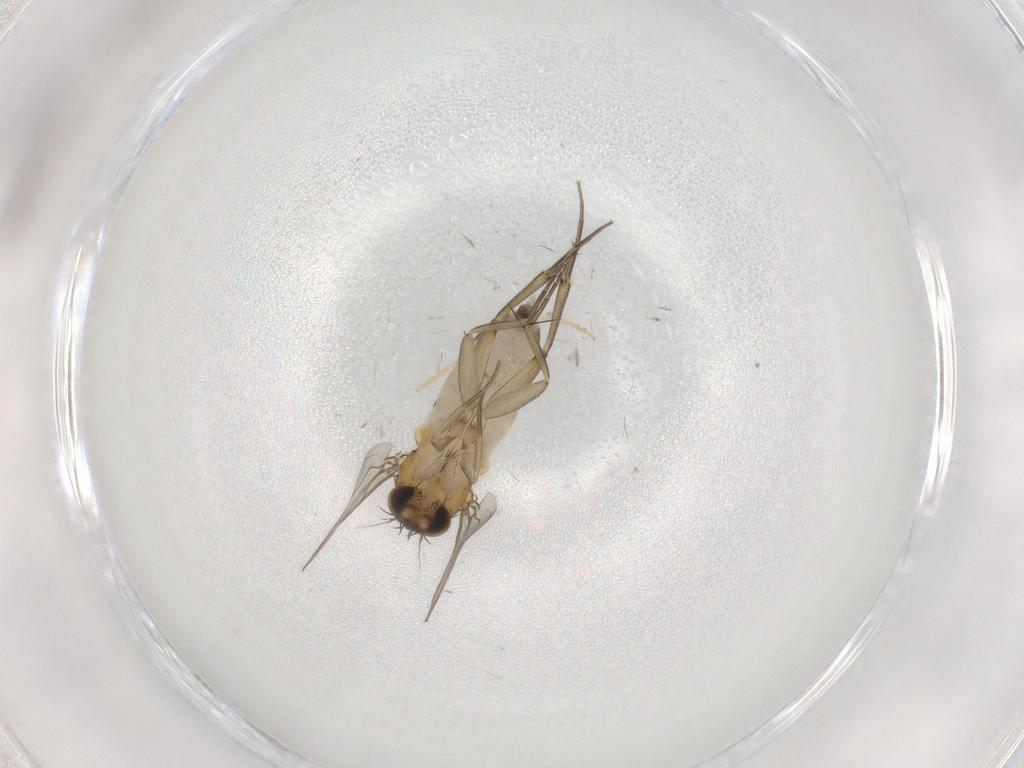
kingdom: Animalia
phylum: Arthropoda
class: Insecta
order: Diptera
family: Chironomidae
